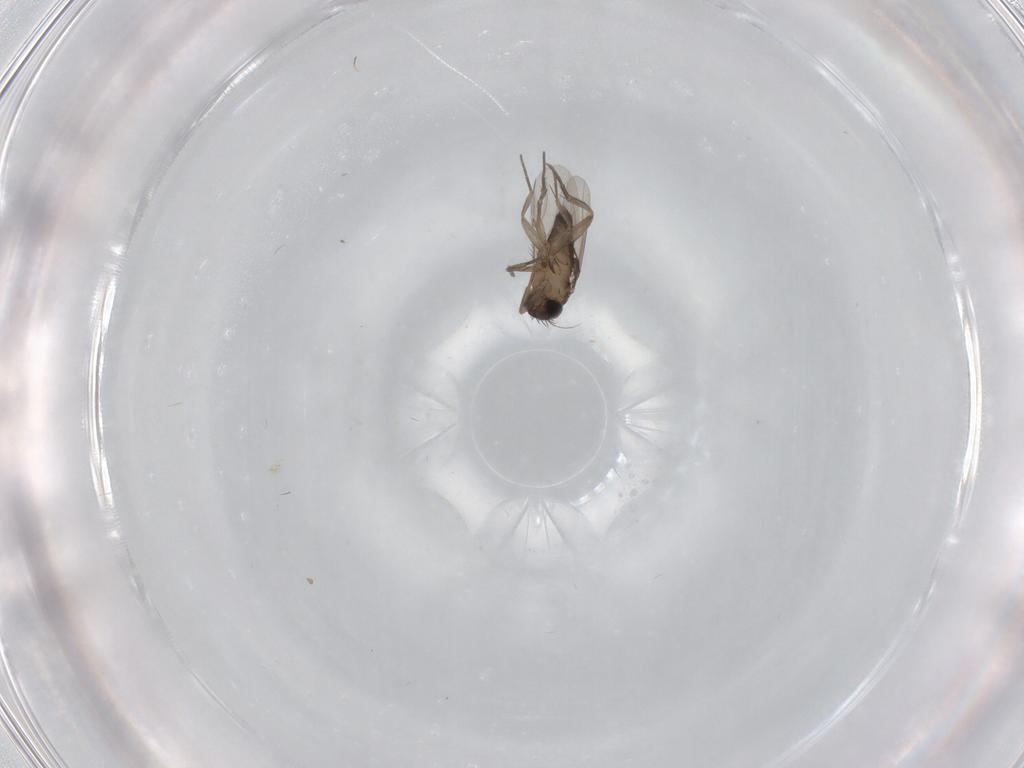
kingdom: Animalia
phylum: Arthropoda
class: Insecta
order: Diptera
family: Phoridae
